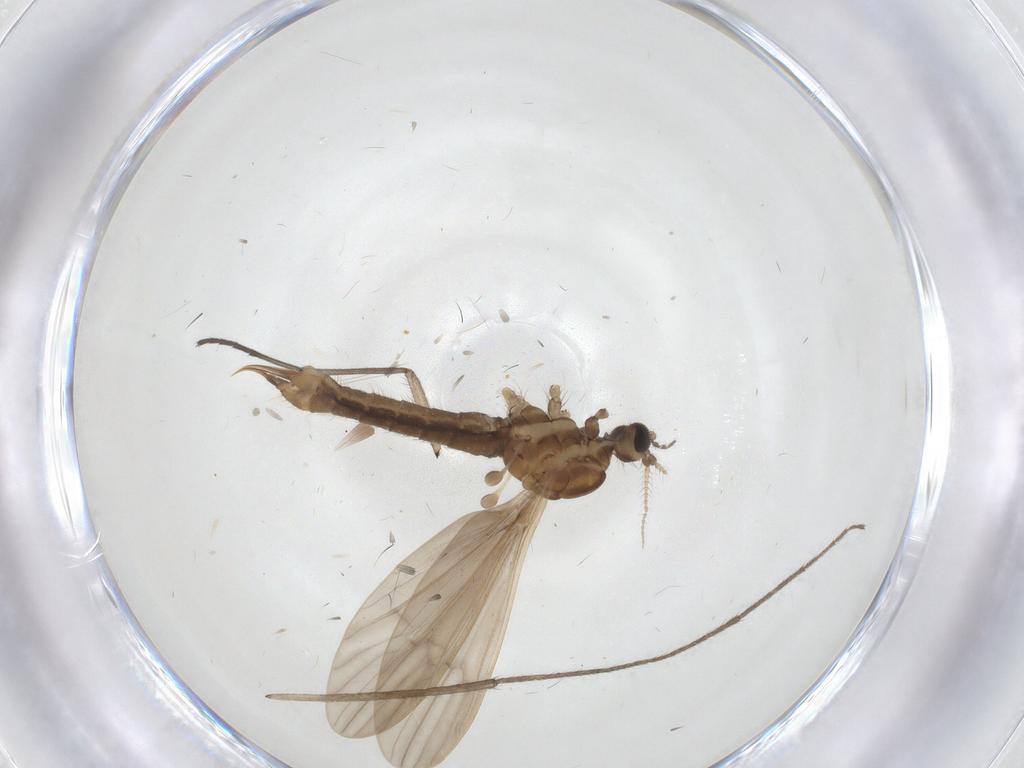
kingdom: Animalia
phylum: Arthropoda
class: Insecta
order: Diptera
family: Limoniidae
